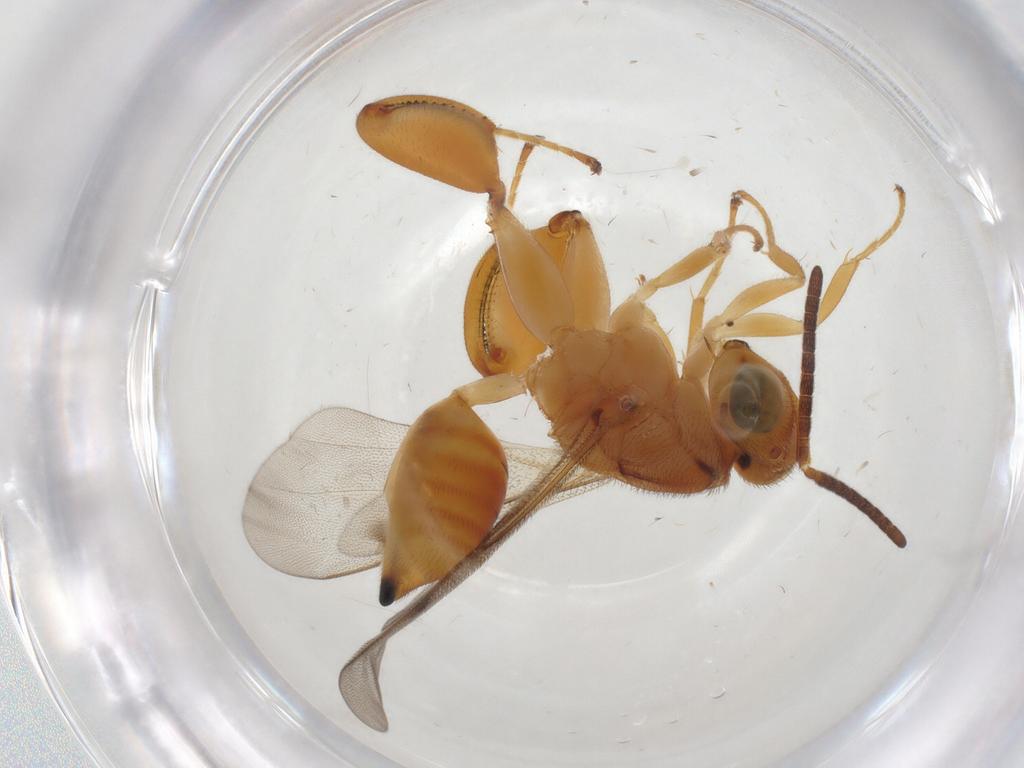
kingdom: Animalia
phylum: Arthropoda
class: Insecta
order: Hymenoptera
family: Chalcididae
